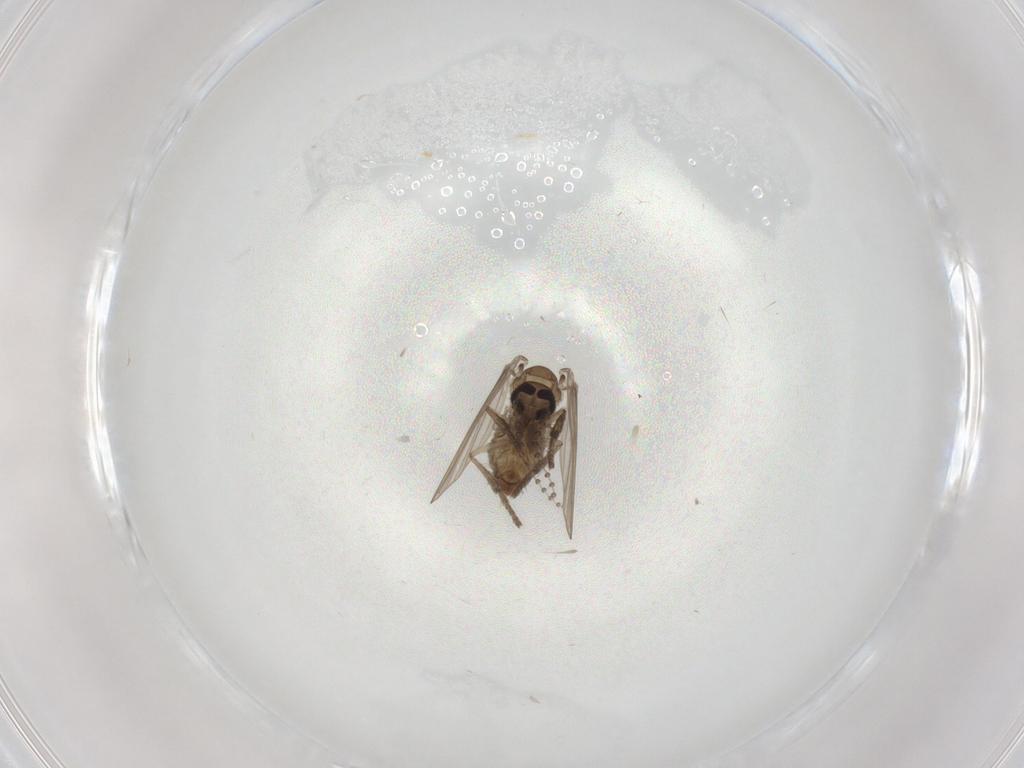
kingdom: Animalia
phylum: Arthropoda
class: Insecta
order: Diptera
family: Psychodidae
